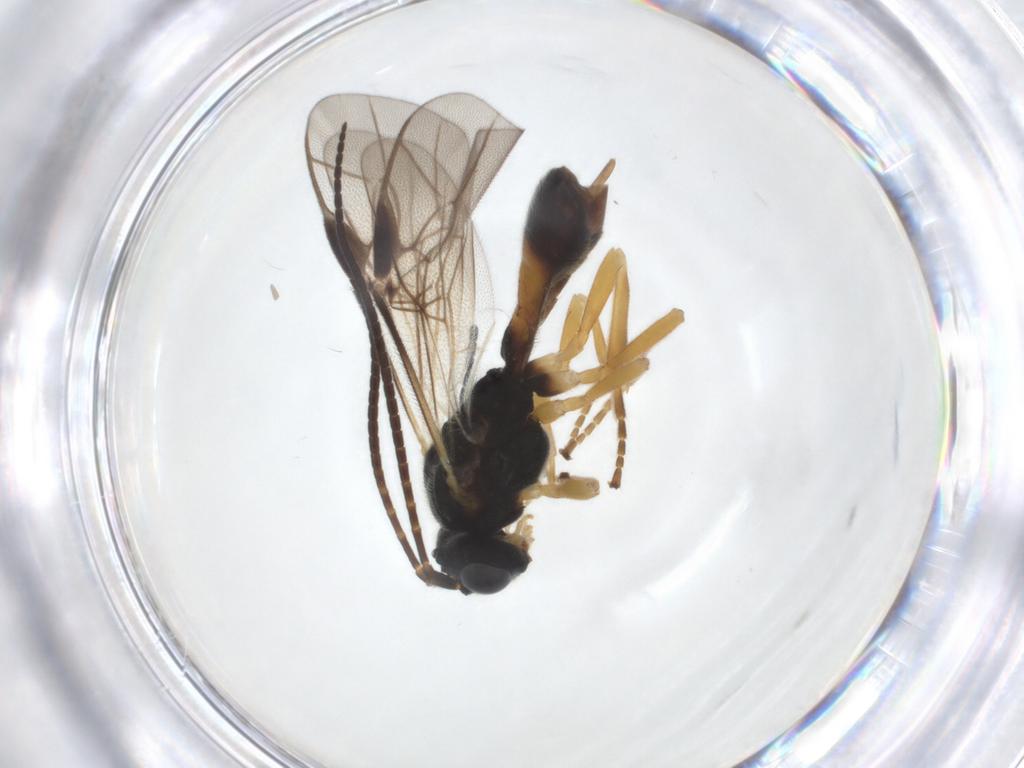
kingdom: Animalia
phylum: Arthropoda
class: Insecta
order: Hymenoptera
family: Braconidae
